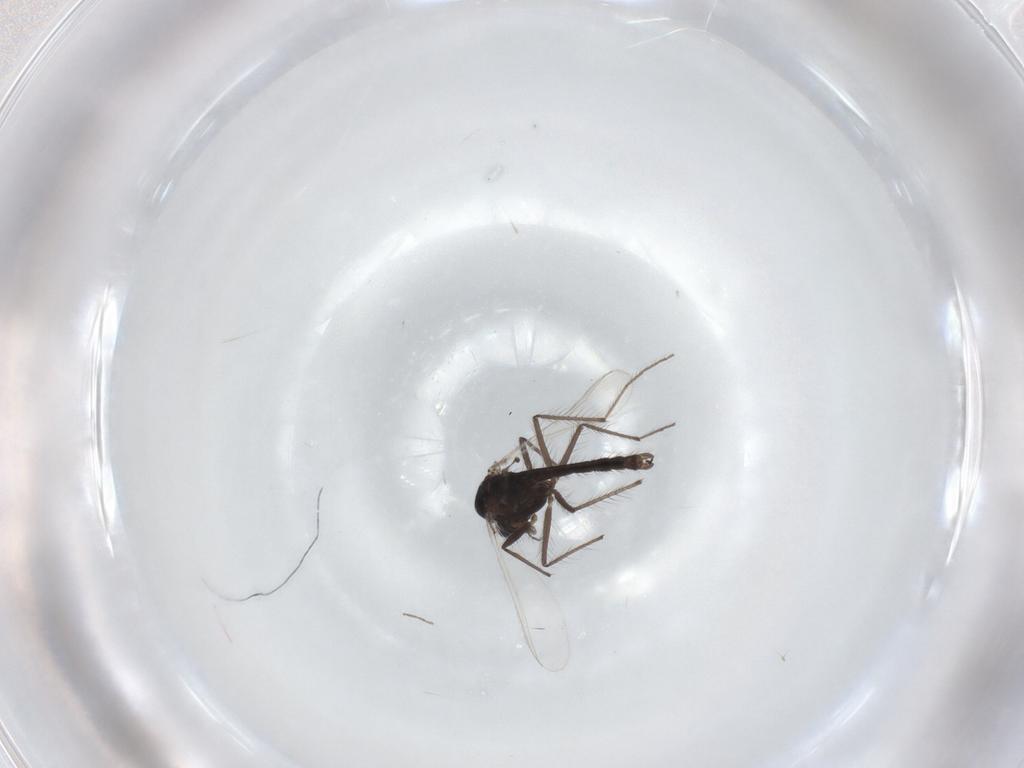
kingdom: Animalia
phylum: Arthropoda
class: Insecta
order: Diptera
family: Chironomidae
